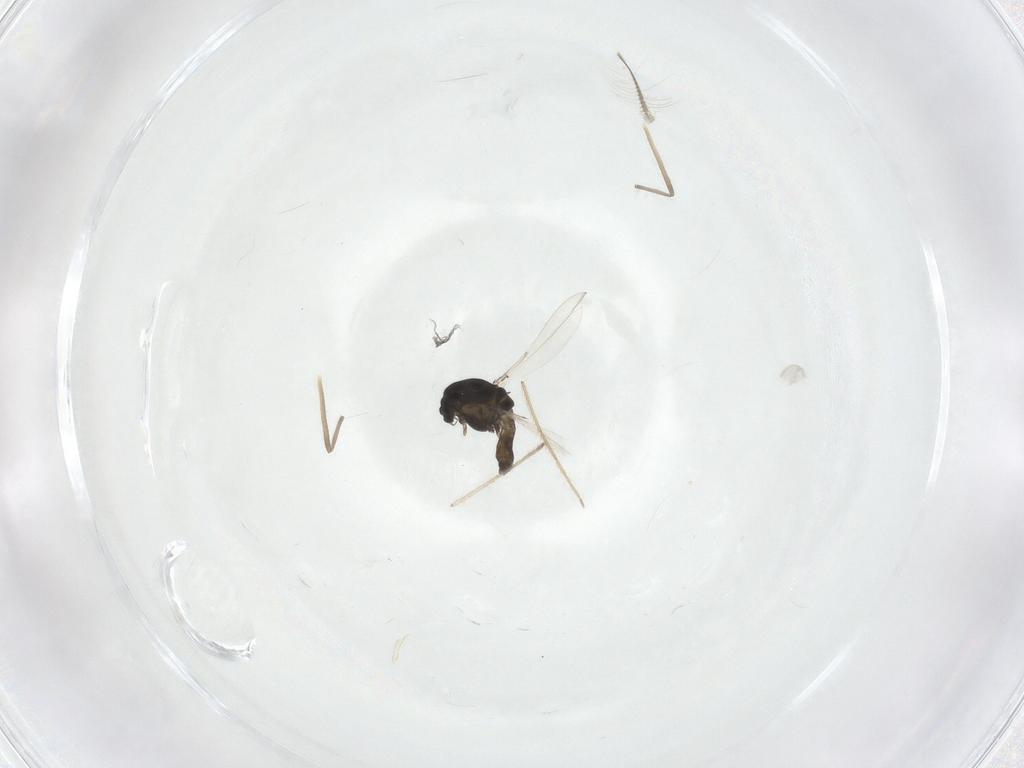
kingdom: Animalia
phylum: Arthropoda
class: Insecta
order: Diptera
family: Chironomidae
